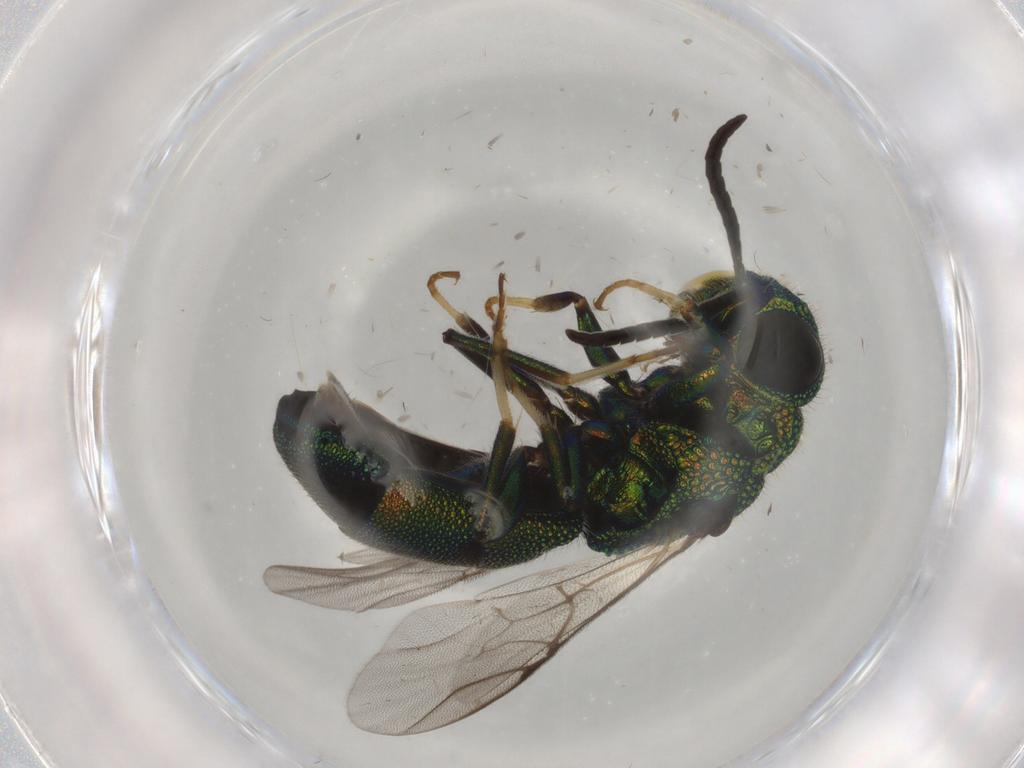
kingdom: Animalia
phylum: Arthropoda
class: Insecta
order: Hymenoptera
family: Chrysididae
